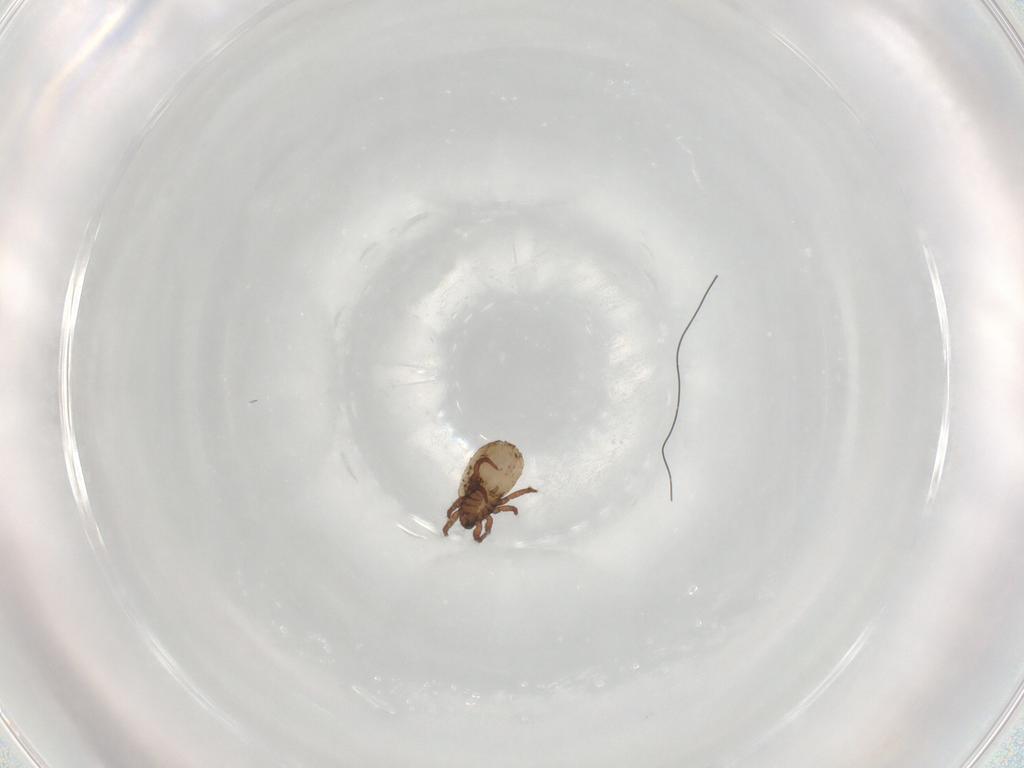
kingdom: Animalia
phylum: Arthropoda
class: Arachnida
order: Sarcoptiformes
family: Crotoniidae
